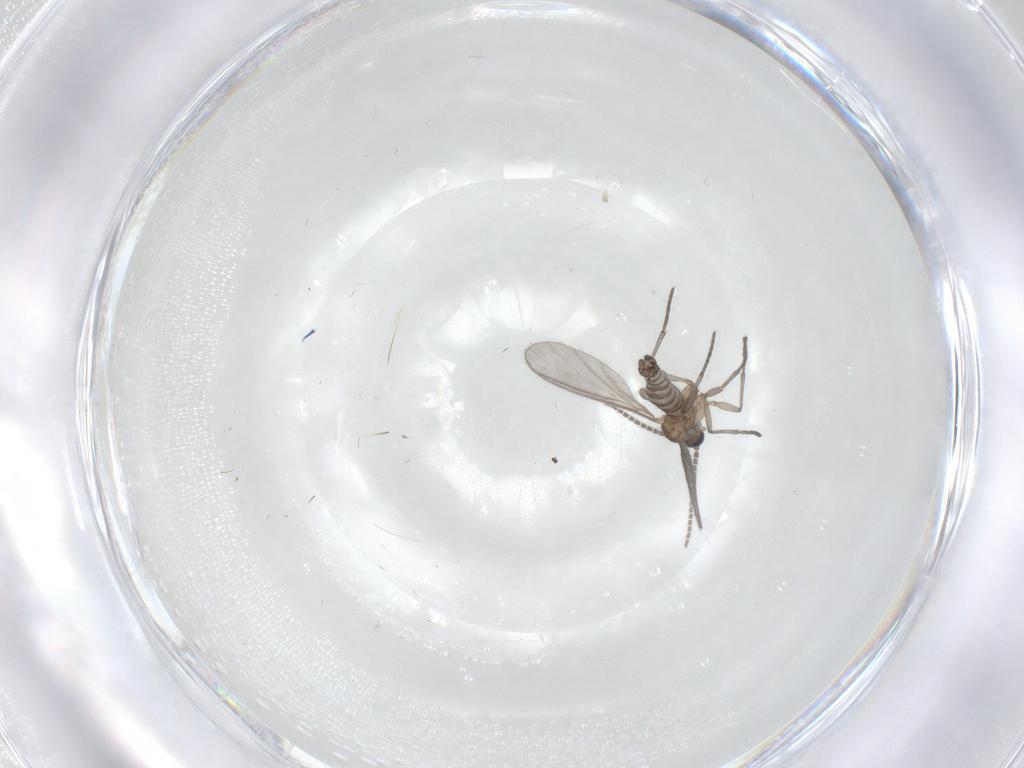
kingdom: Animalia
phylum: Arthropoda
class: Insecta
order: Diptera
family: Sciaridae
